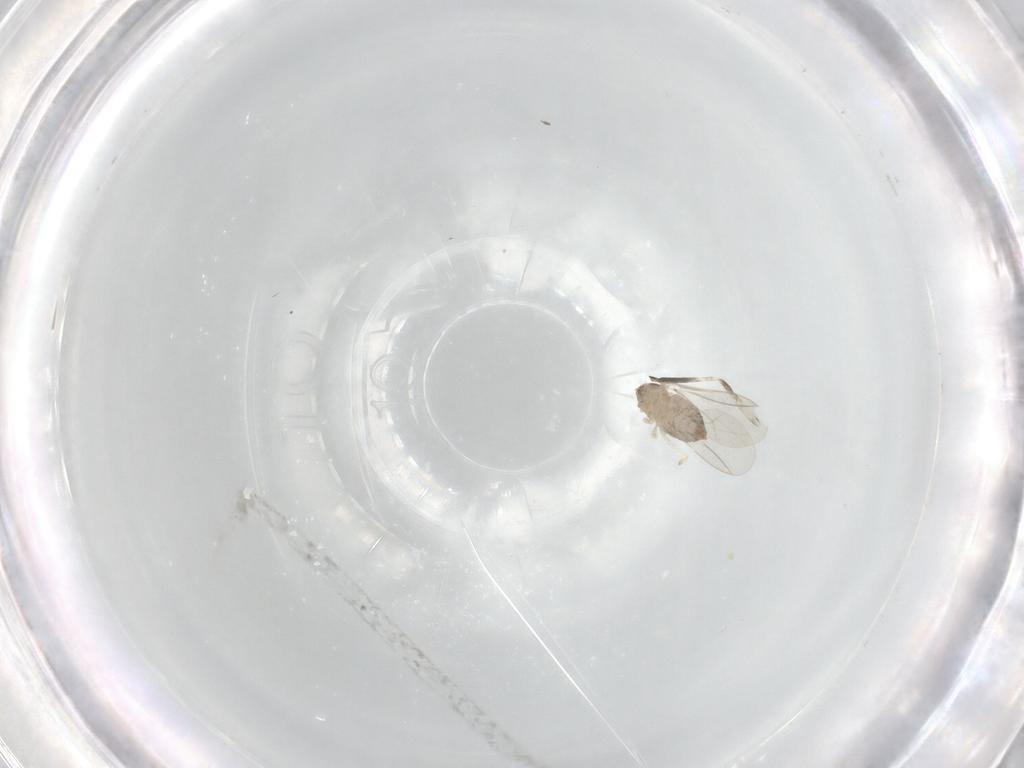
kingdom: Animalia
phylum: Arthropoda
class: Insecta
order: Diptera
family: Cecidomyiidae
